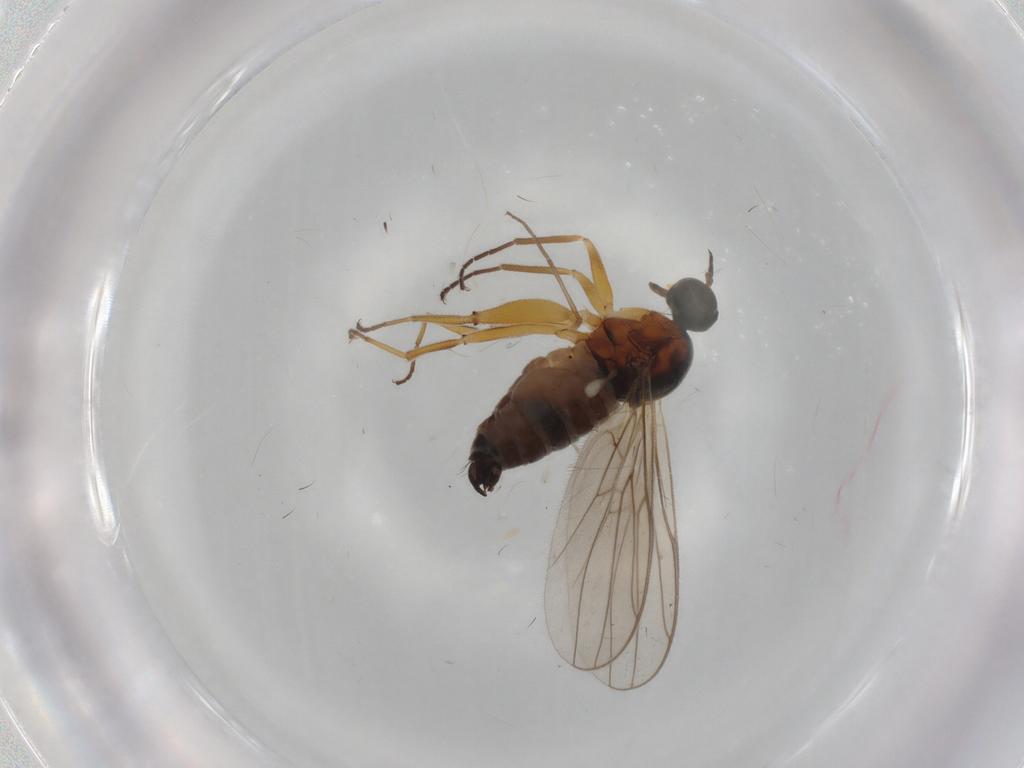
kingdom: Animalia
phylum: Arthropoda
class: Insecta
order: Diptera
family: Hybotidae
